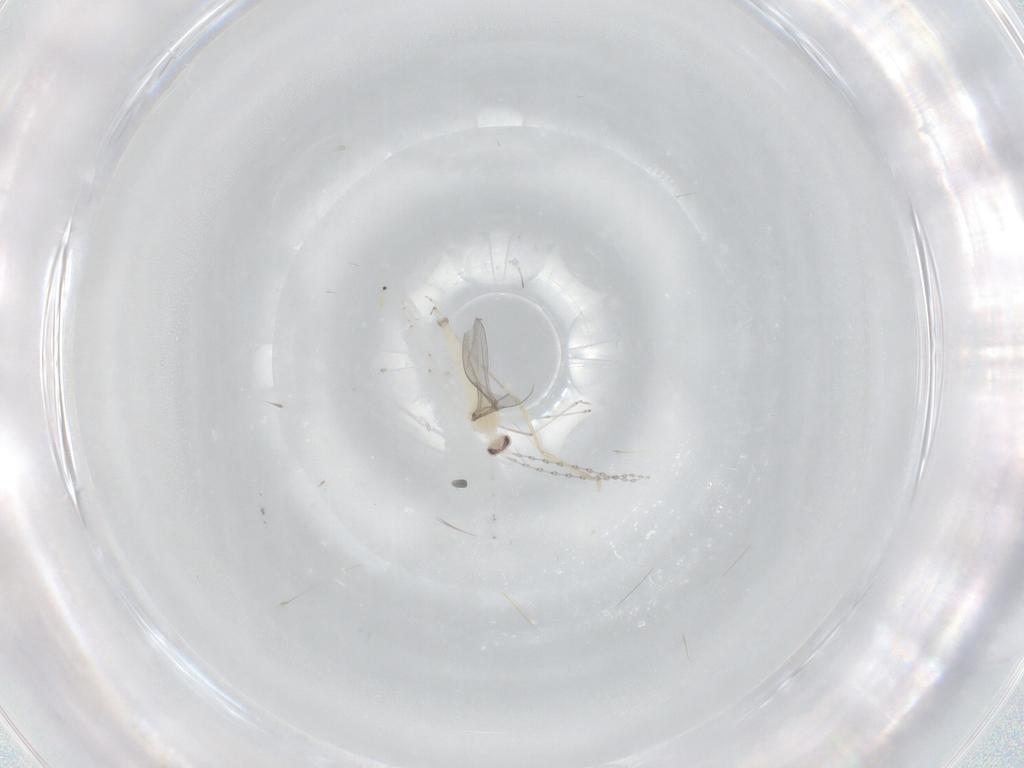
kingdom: Animalia
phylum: Arthropoda
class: Insecta
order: Diptera
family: Cecidomyiidae
